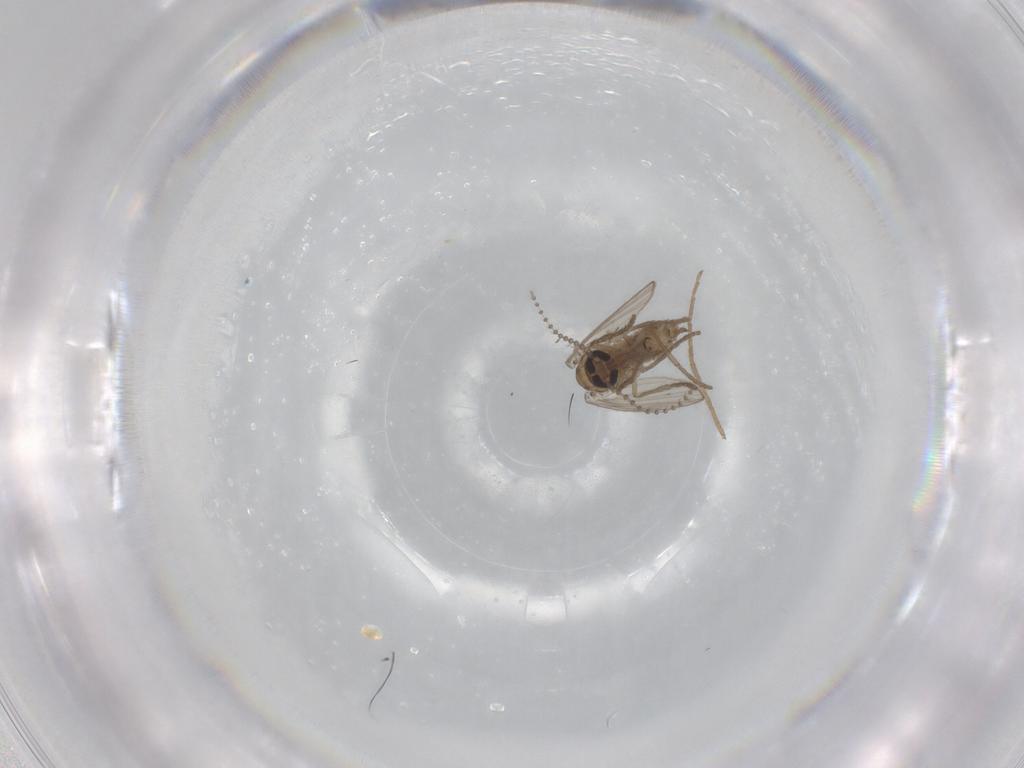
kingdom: Animalia
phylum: Arthropoda
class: Insecta
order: Diptera
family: Psychodidae
